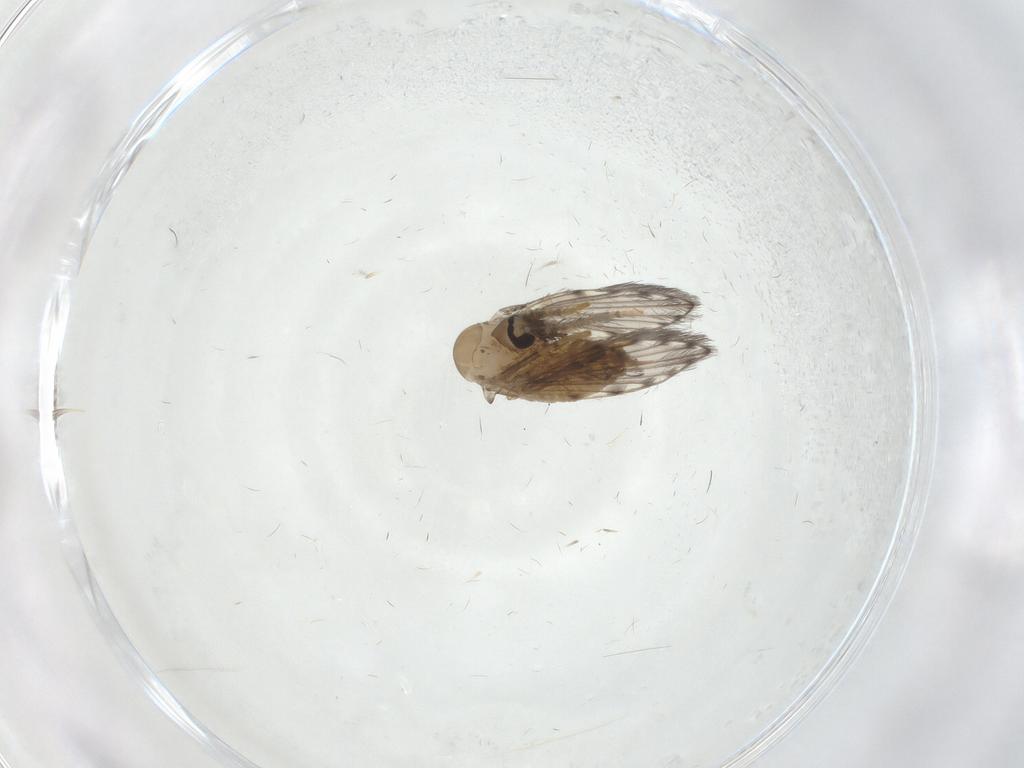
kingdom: Animalia
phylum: Arthropoda
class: Insecta
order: Diptera
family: Psychodidae
